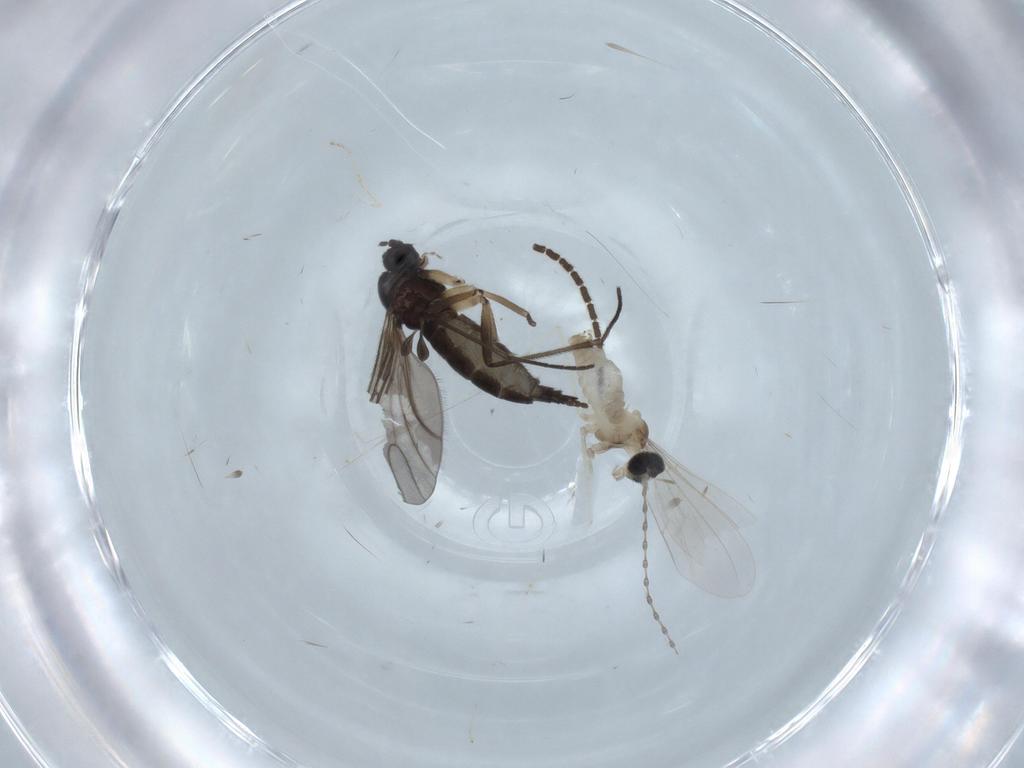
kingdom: Animalia
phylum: Arthropoda
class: Insecta
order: Diptera
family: Sciaridae
